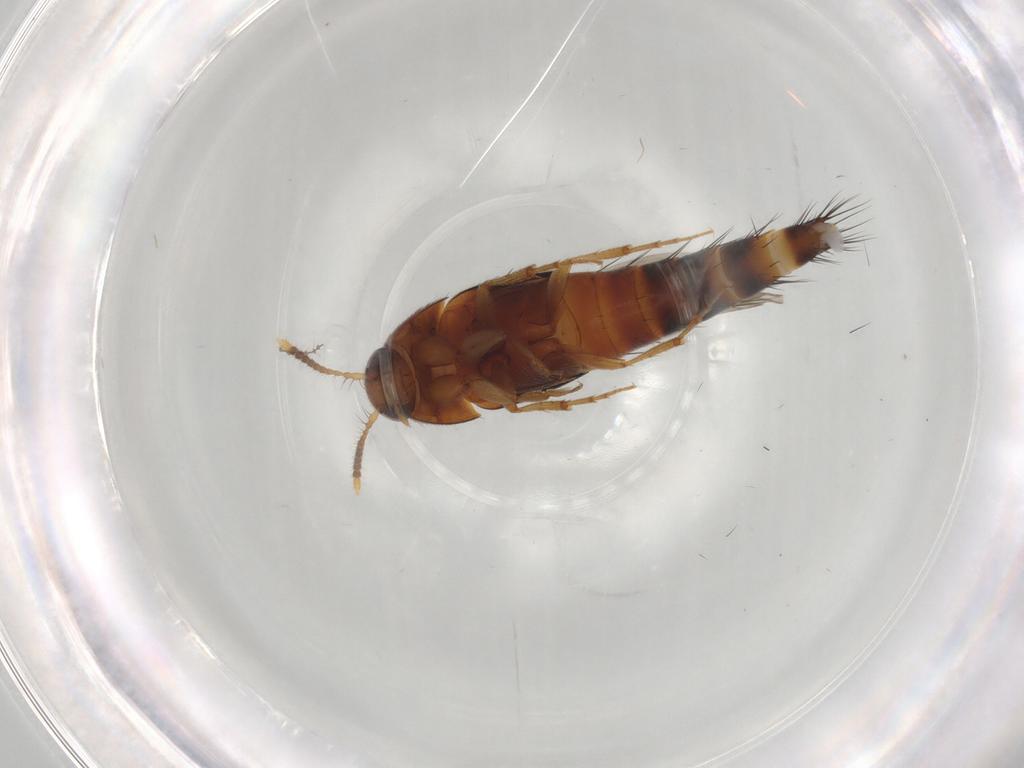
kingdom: Animalia
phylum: Arthropoda
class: Insecta
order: Coleoptera
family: Staphylinidae
